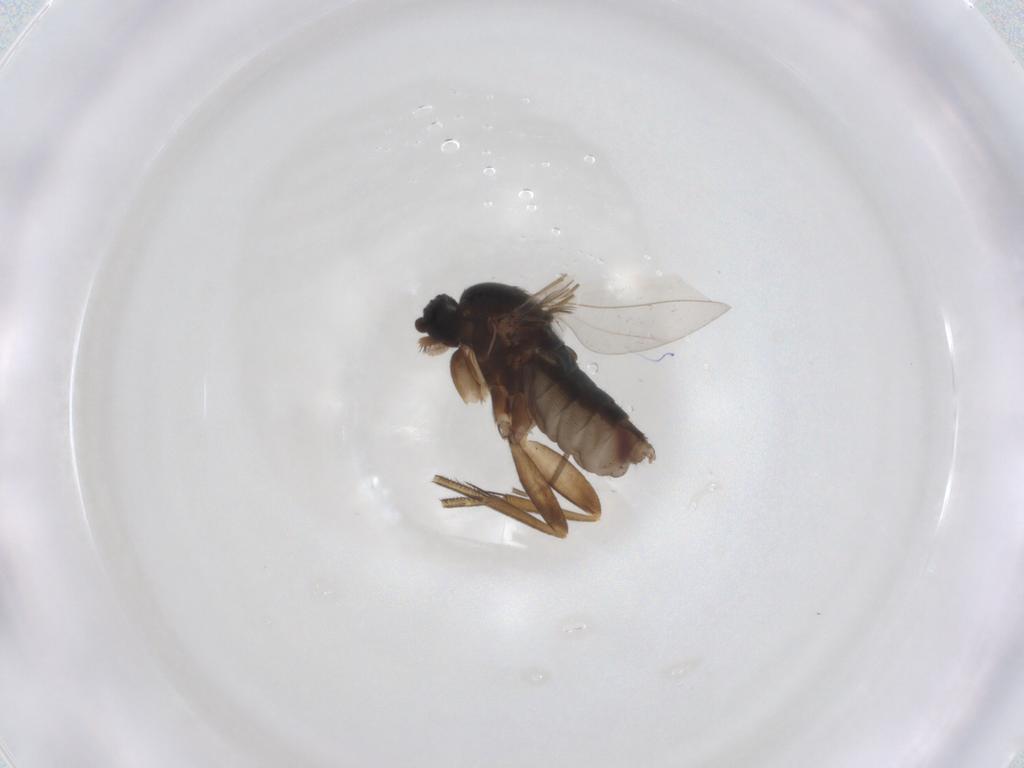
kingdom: Animalia
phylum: Arthropoda
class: Insecta
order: Diptera
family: Phoridae
